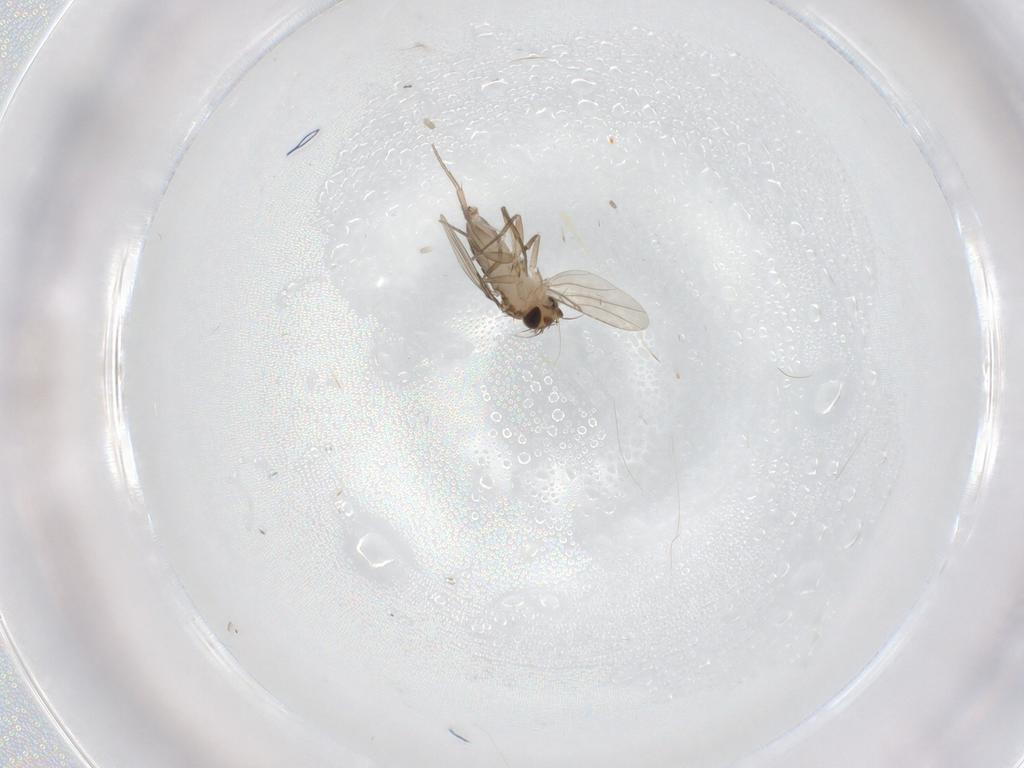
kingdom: Animalia
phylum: Arthropoda
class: Insecta
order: Diptera
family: Phoridae
